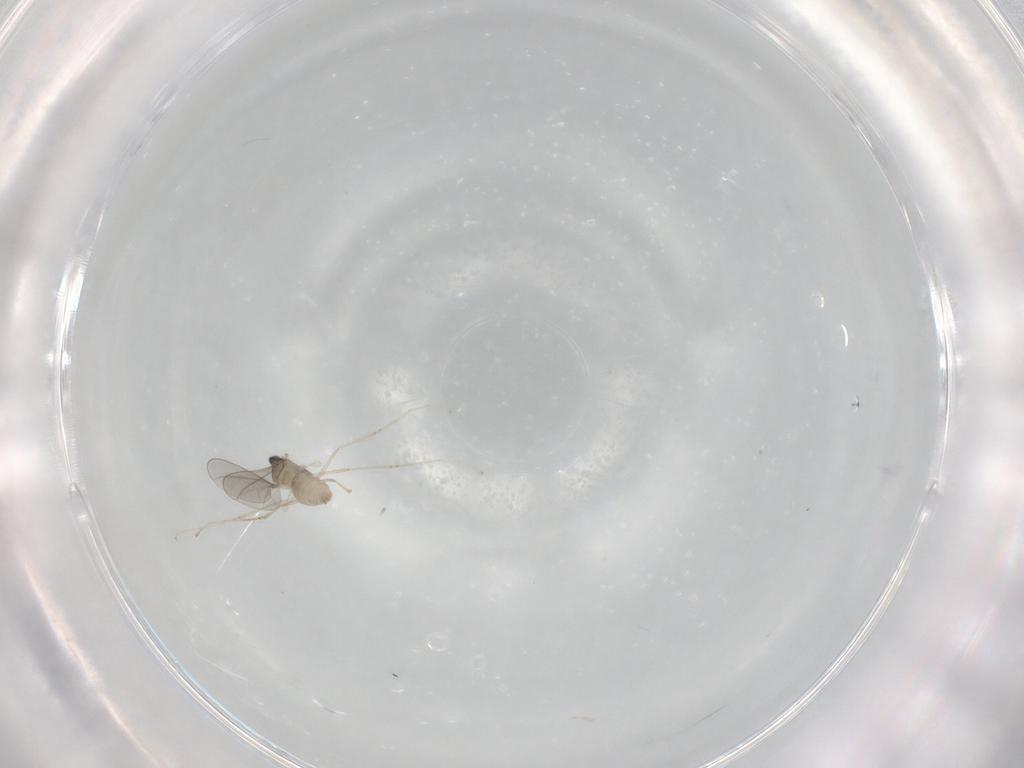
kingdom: Animalia
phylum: Arthropoda
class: Insecta
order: Diptera
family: Cecidomyiidae
